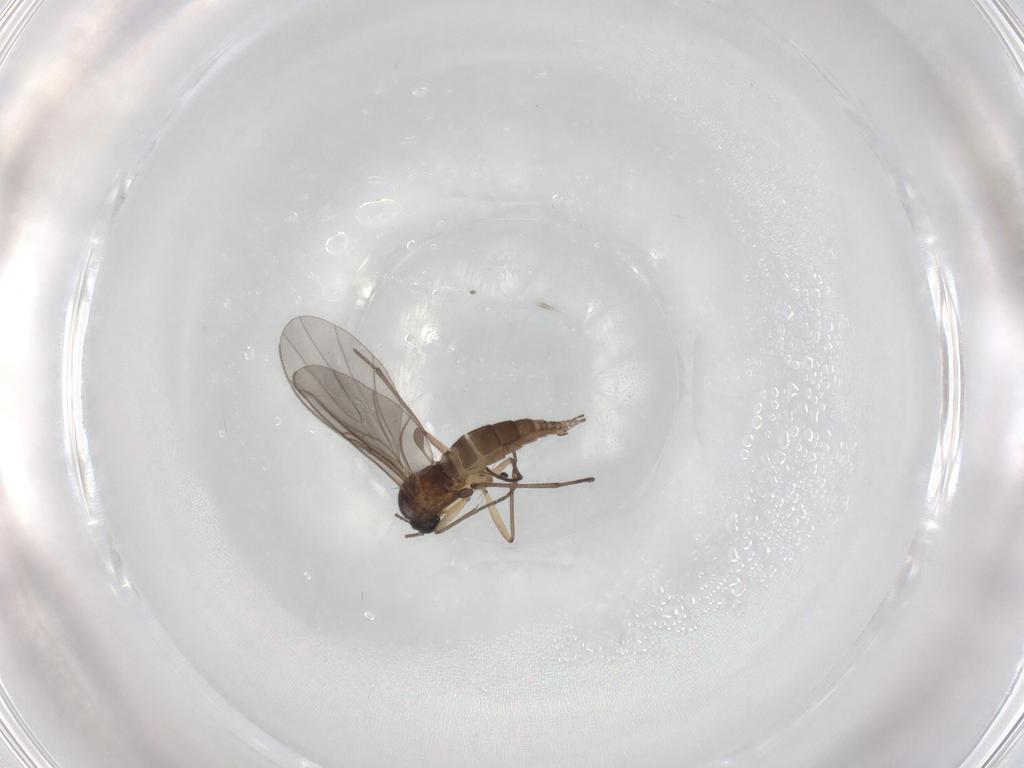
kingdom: Animalia
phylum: Arthropoda
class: Insecta
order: Diptera
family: Sciaridae
